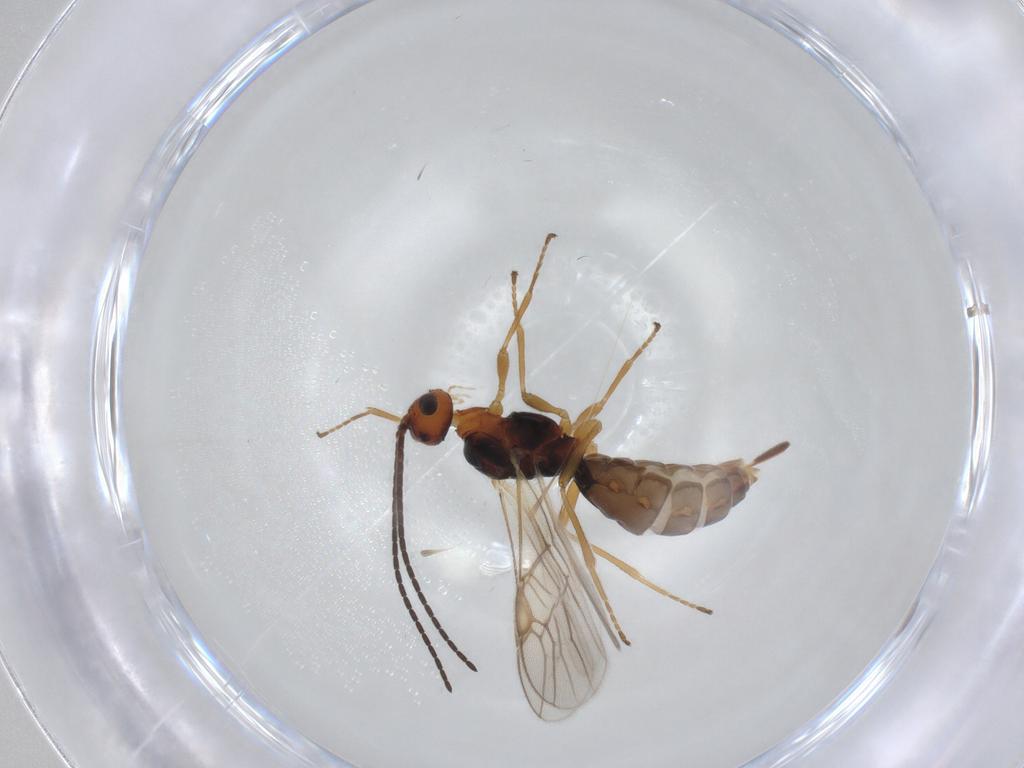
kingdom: Animalia
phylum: Arthropoda
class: Insecta
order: Hymenoptera
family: Braconidae
